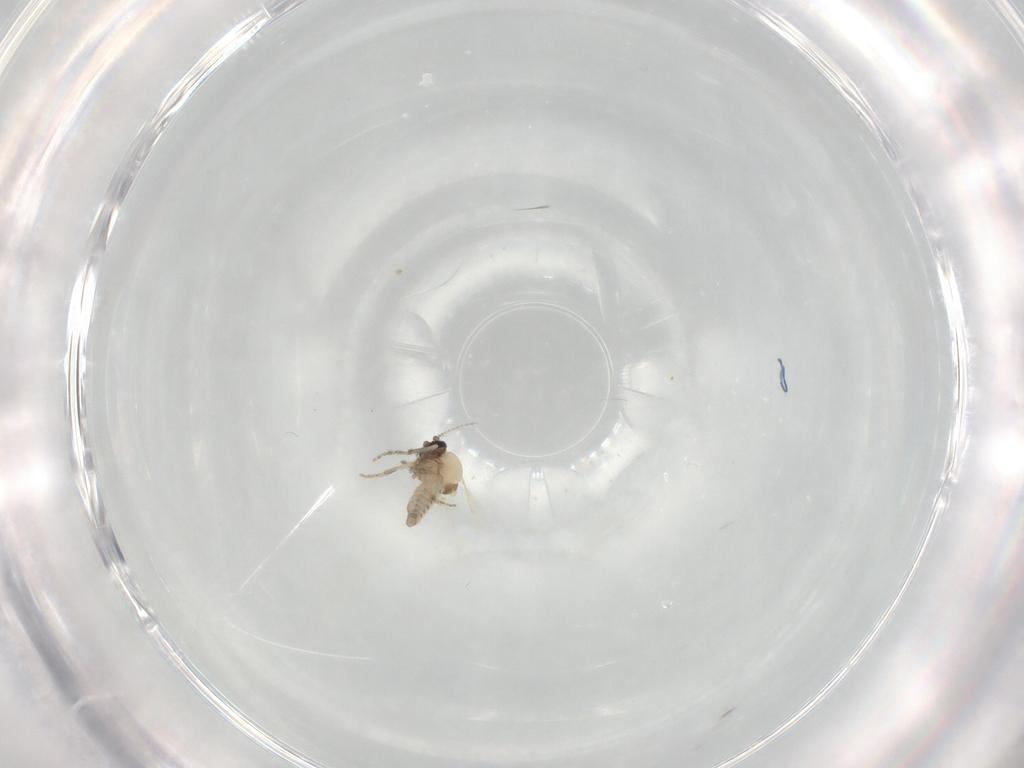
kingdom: Animalia
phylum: Arthropoda
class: Insecta
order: Diptera
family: Ceratopogonidae
